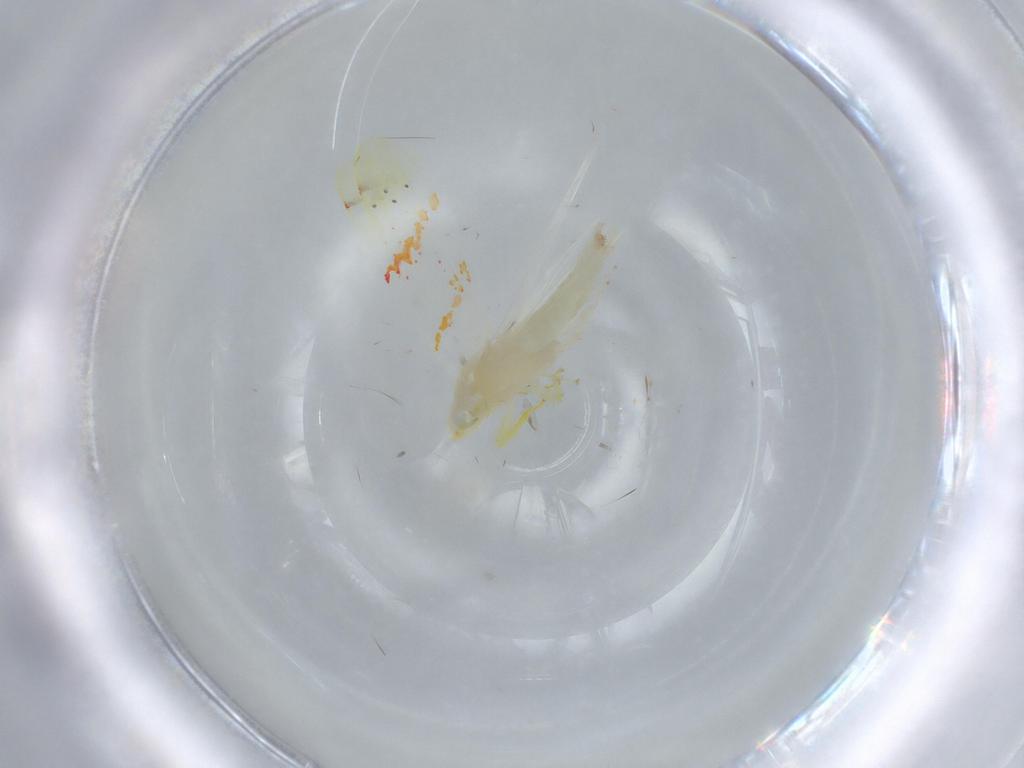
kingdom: Animalia
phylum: Arthropoda
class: Insecta
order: Hemiptera
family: Cicadellidae
